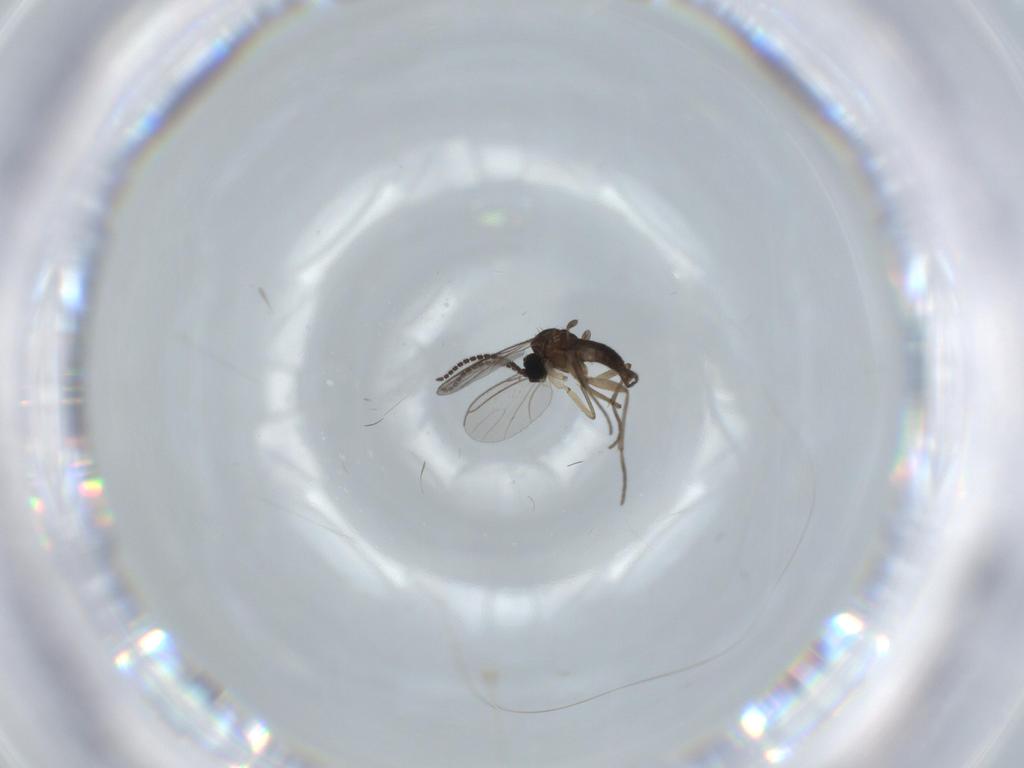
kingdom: Animalia
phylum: Arthropoda
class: Insecta
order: Diptera
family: Sciaridae
